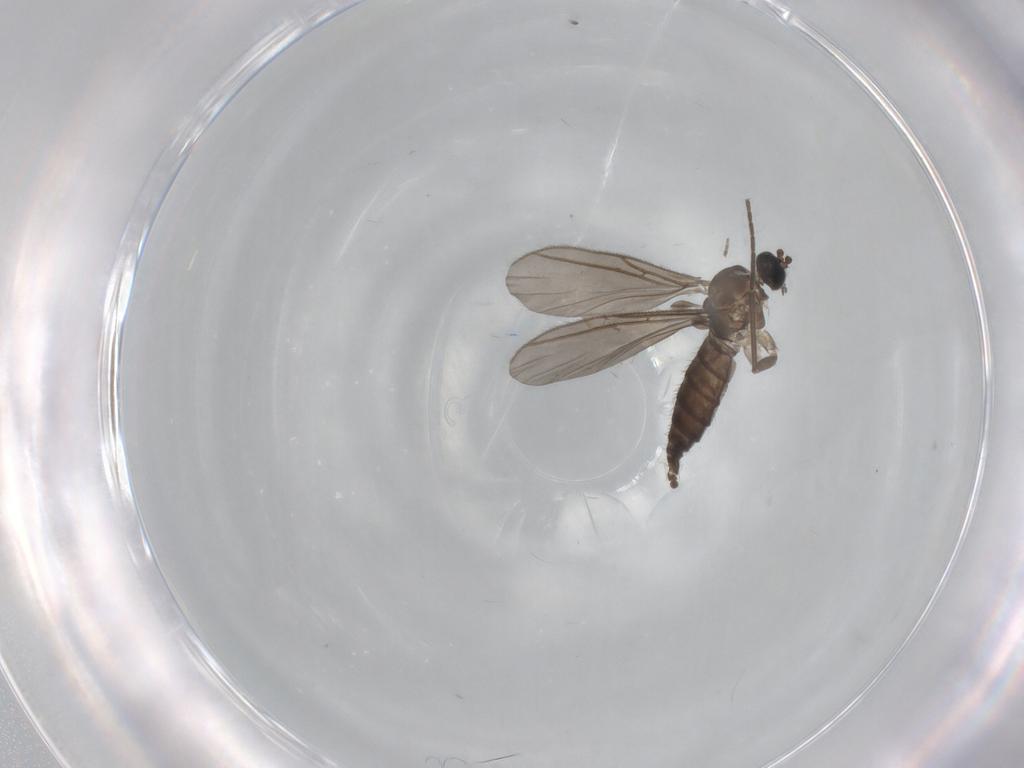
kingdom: Animalia
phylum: Arthropoda
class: Insecta
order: Diptera
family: Sciaridae
